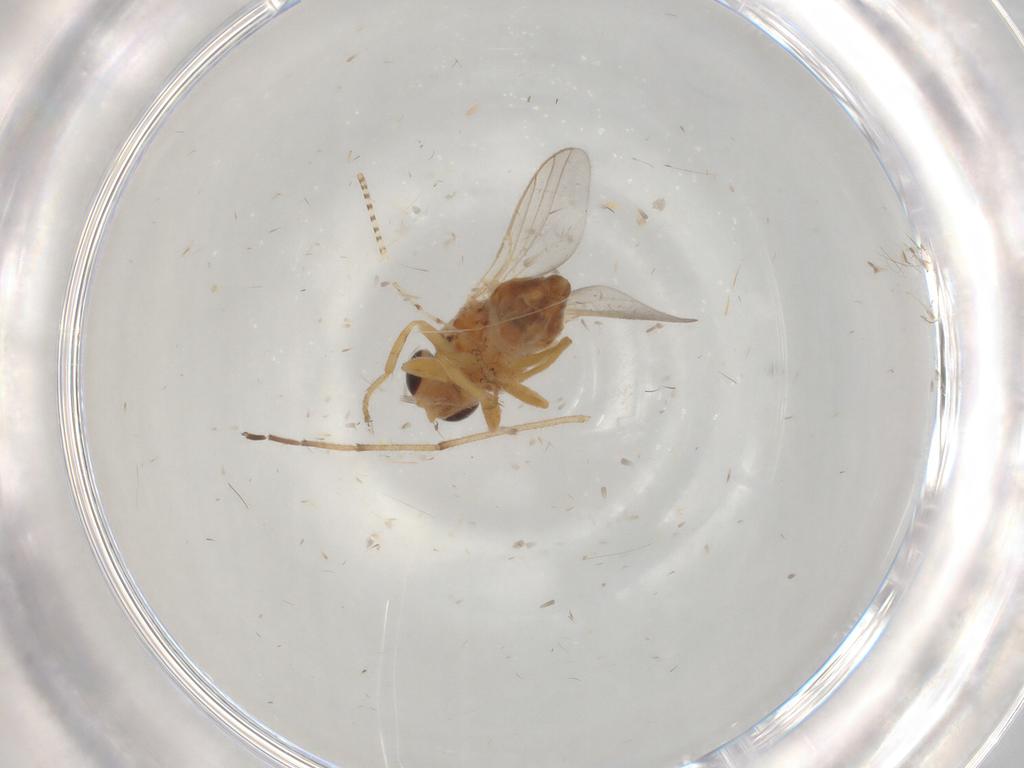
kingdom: Animalia
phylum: Arthropoda
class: Insecta
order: Diptera
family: Chloropidae
